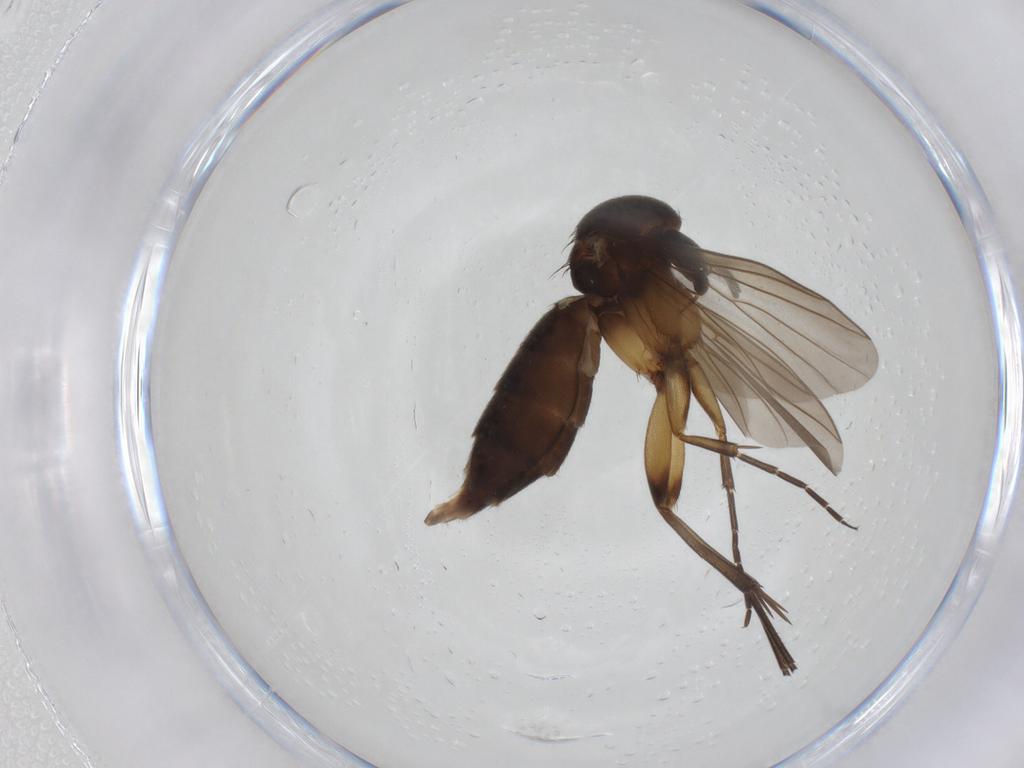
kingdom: Animalia
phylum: Arthropoda
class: Insecta
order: Diptera
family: Mycetophilidae
